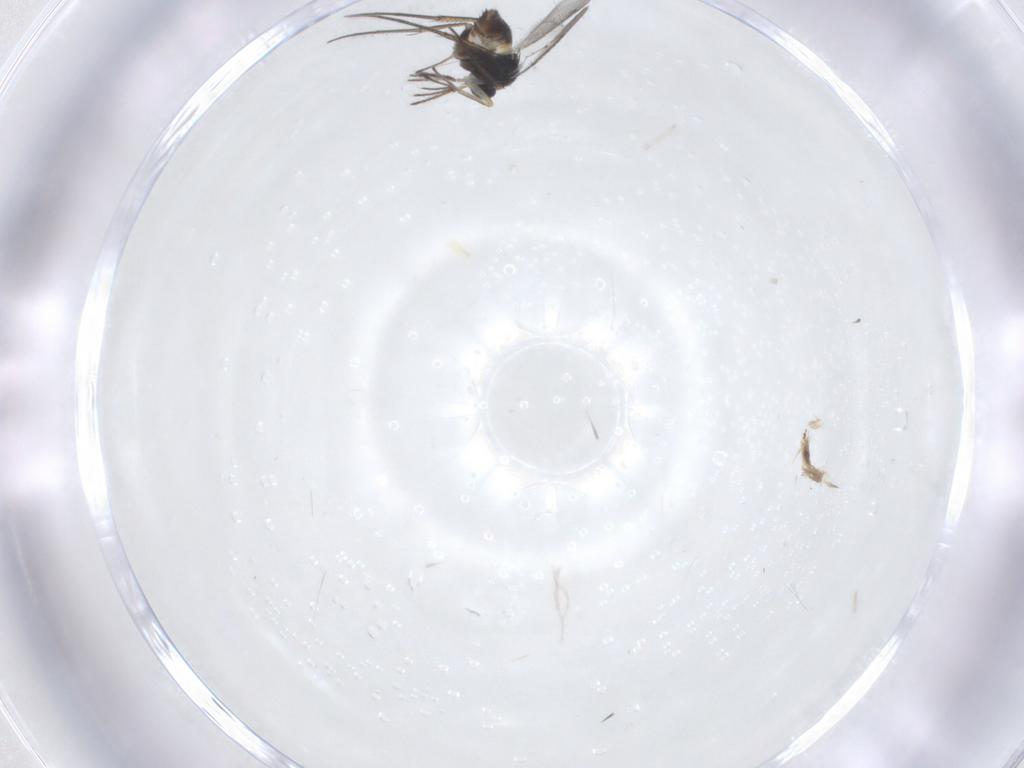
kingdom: Animalia
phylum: Arthropoda
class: Insecta
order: Hymenoptera
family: Eulophidae
